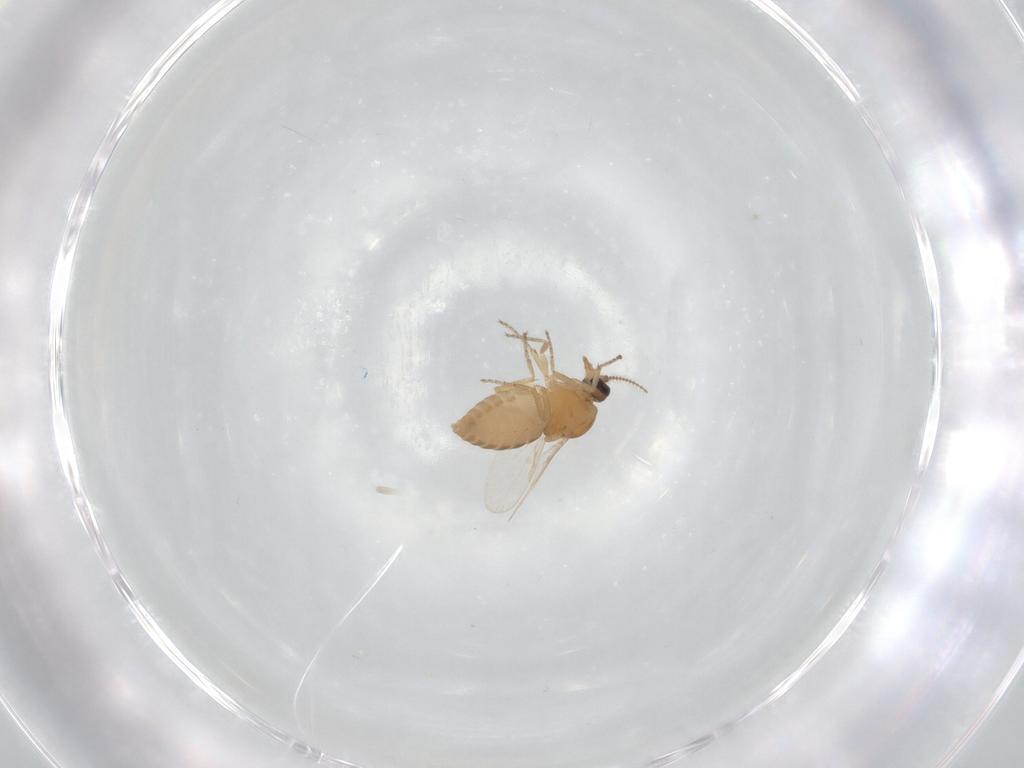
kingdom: Animalia
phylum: Arthropoda
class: Insecta
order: Diptera
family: Ceratopogonidae
